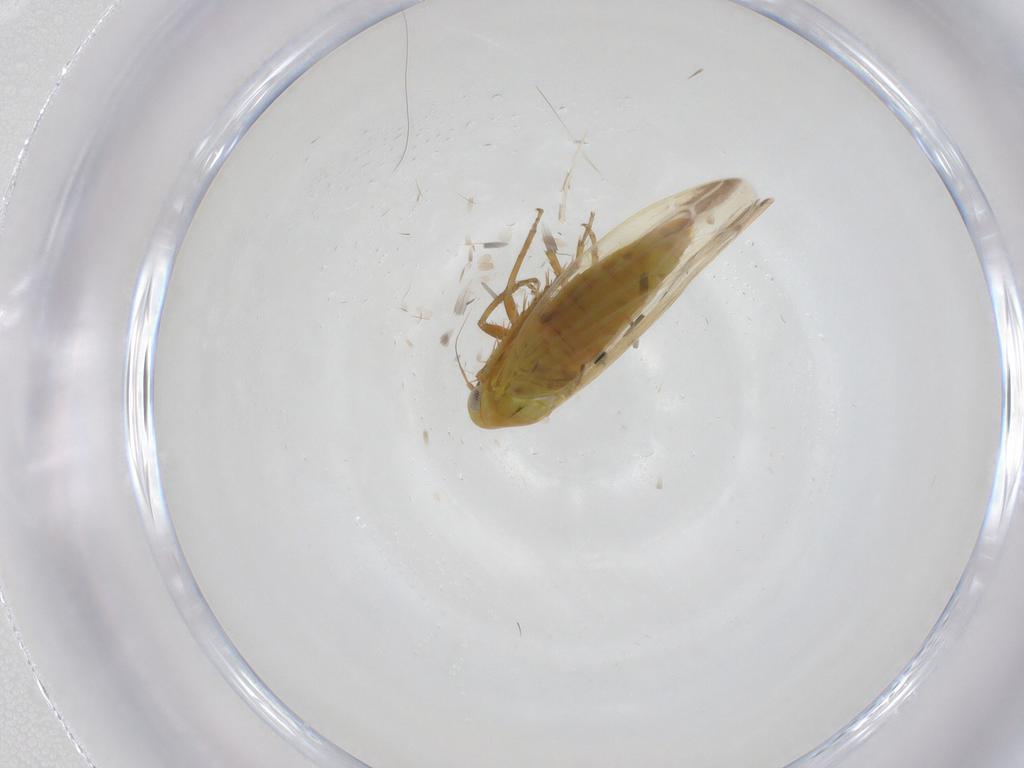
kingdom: Animalia
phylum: Arthropoda
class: Insecta
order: Hemiptera
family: Cicadellidae
